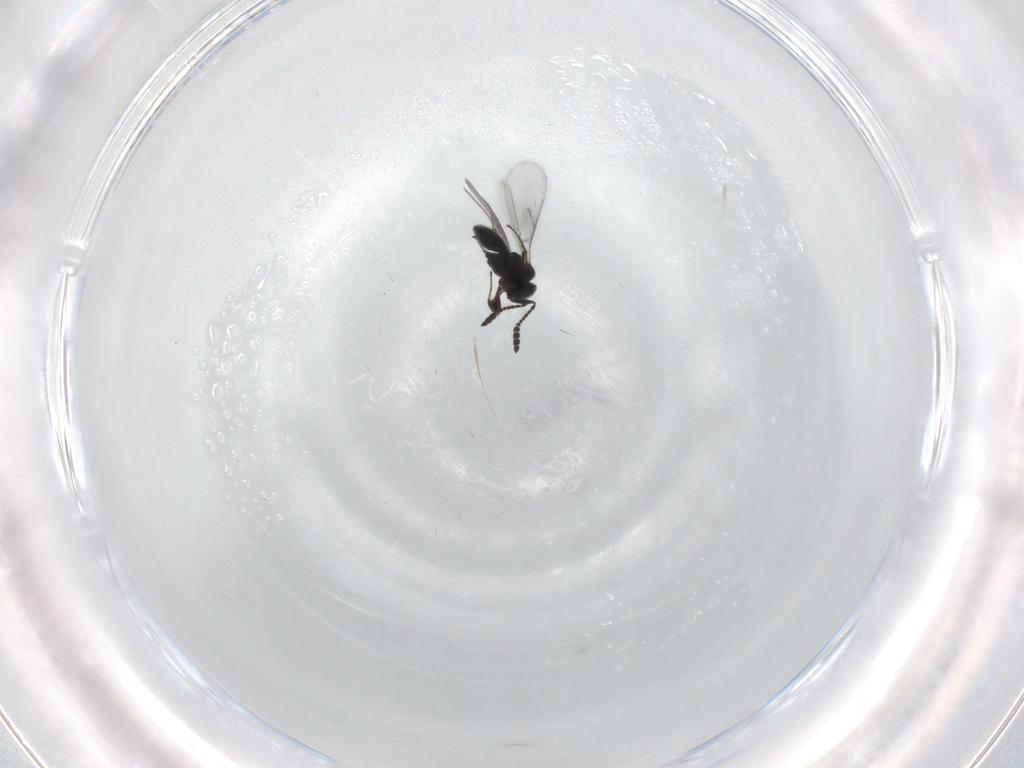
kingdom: Animalia
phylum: Arthropoda
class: Insecta
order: Hymenoptera
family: Scelionidae
